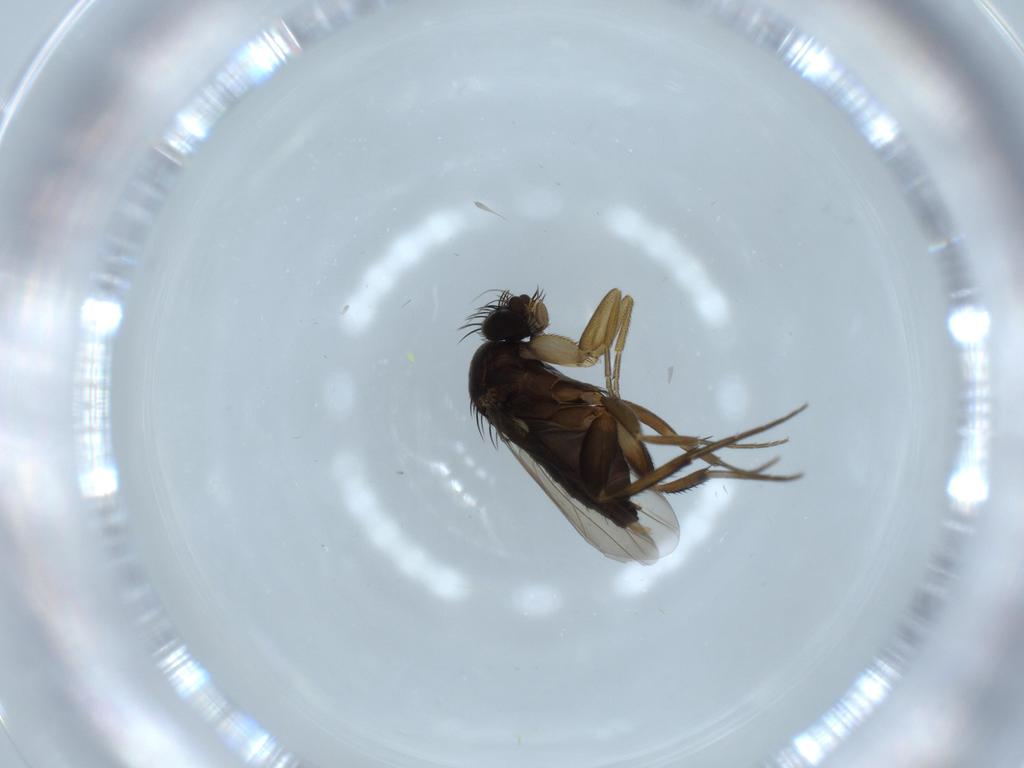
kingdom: Animalia
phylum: Arthropoda
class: Insecta
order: Diptera
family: Phoridae
